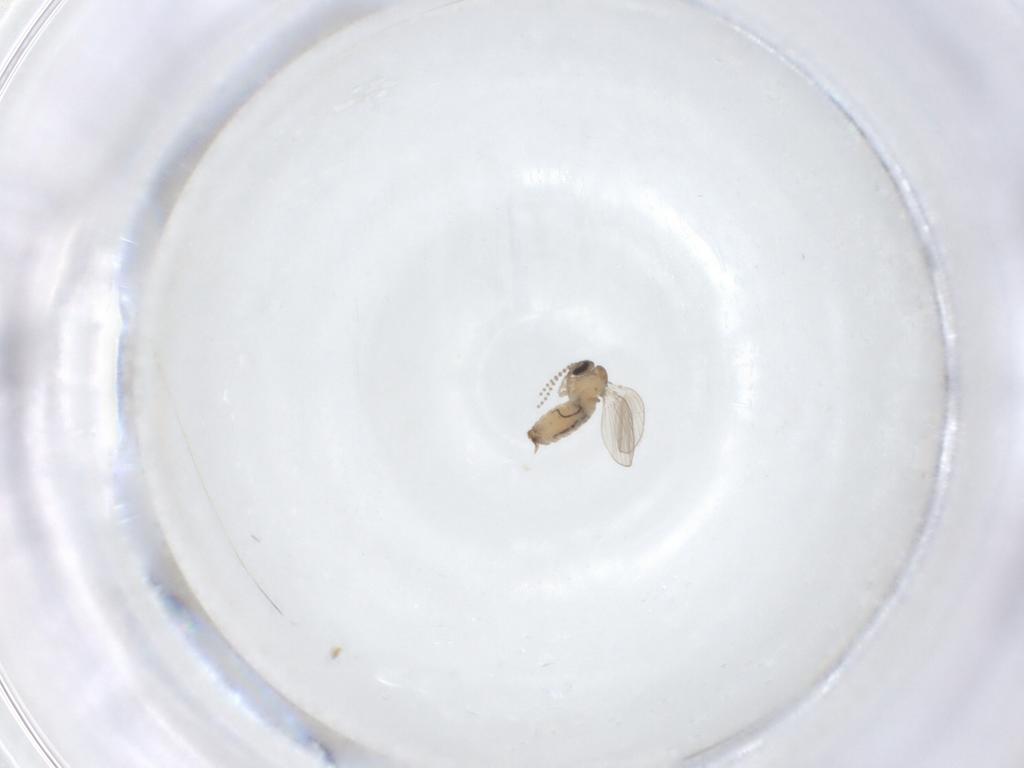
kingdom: Animalia
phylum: Arthropoda
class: Insecta
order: Diptera
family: Psychodidae
